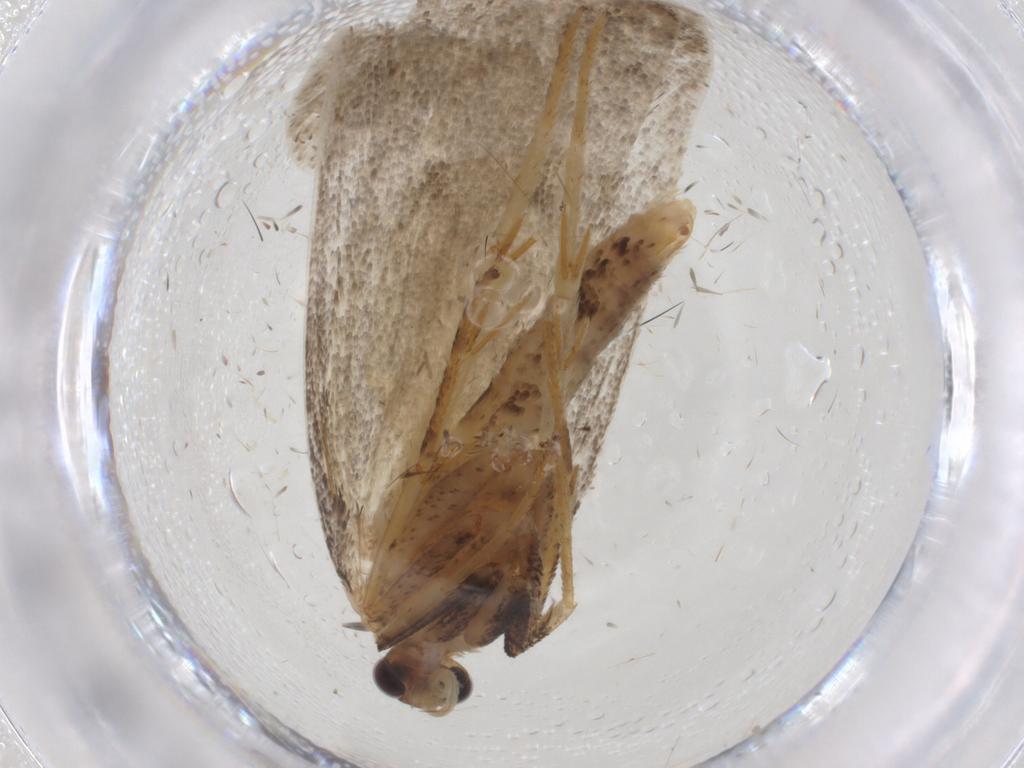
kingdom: Animalia
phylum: Arthropoda
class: Insecta
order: Lepidoptera
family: Depressariidae
